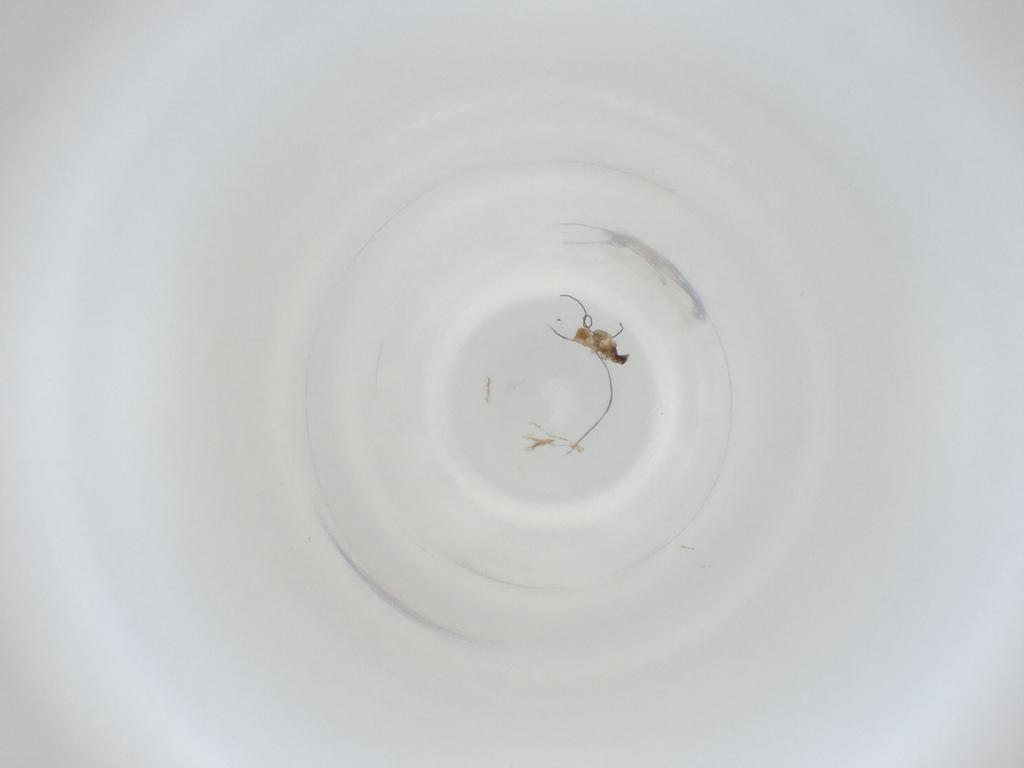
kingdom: Animalia
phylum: Arthropoda
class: Insecta
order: Diptera
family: Cecidomyiidae
